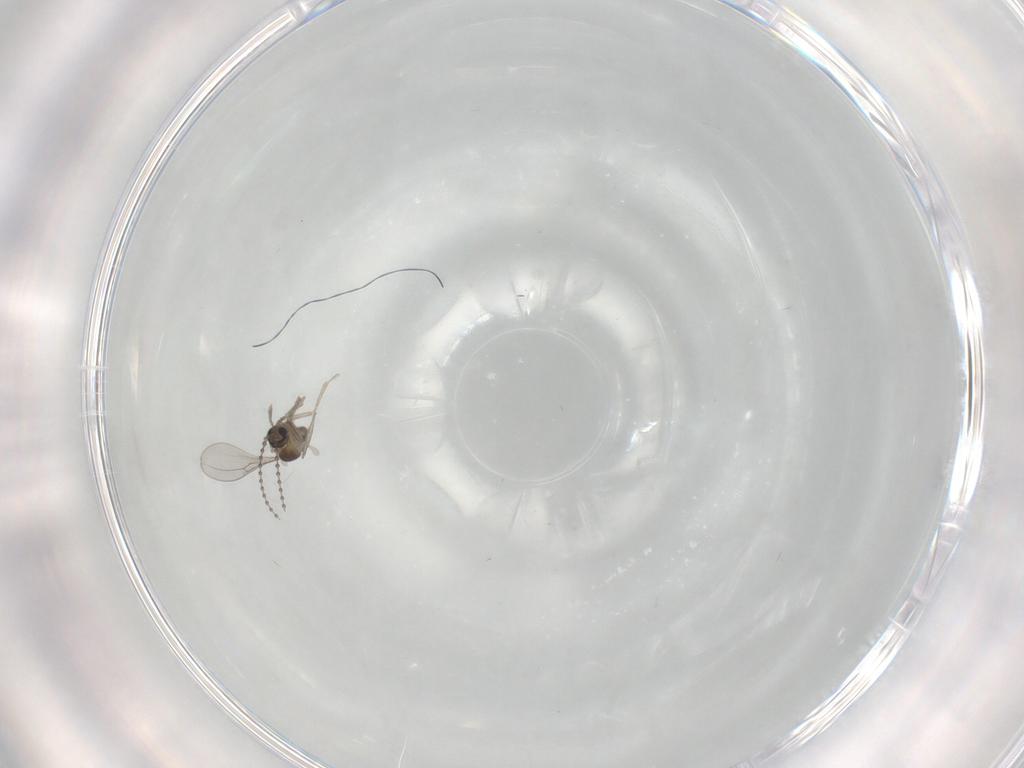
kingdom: Animalia
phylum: Arthropoda
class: Insecta
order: Diptera
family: Cecidomyiidae
